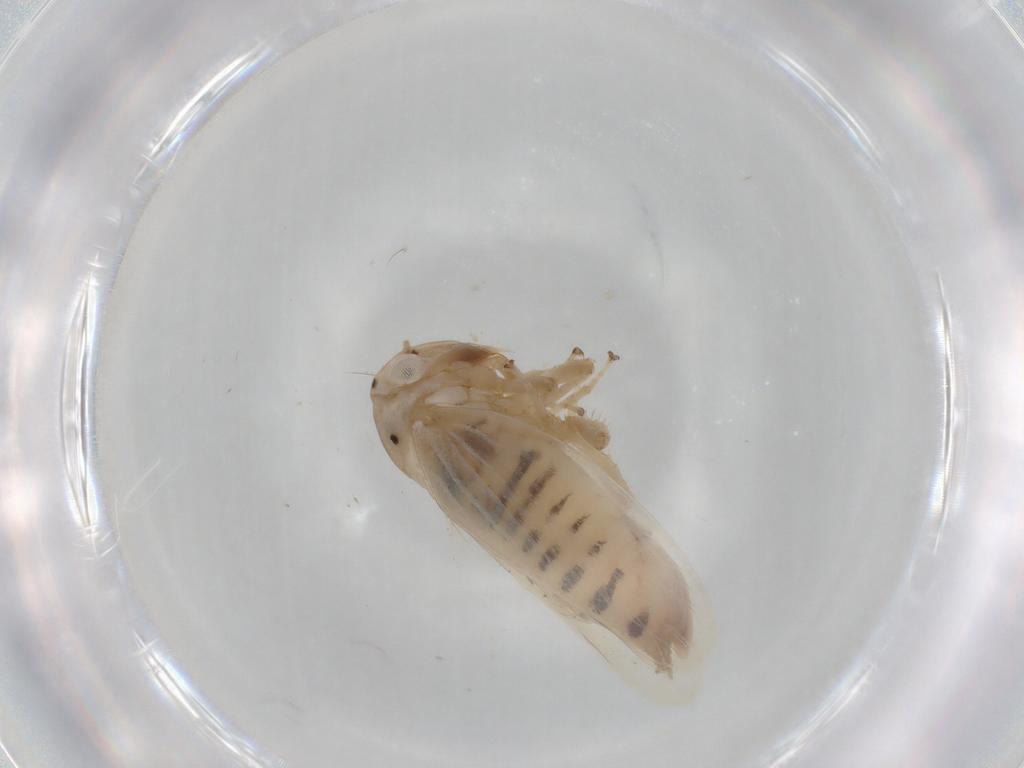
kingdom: Animalia
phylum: Arthropoda
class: Insecta
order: Hemiptera
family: Cicadellidae
